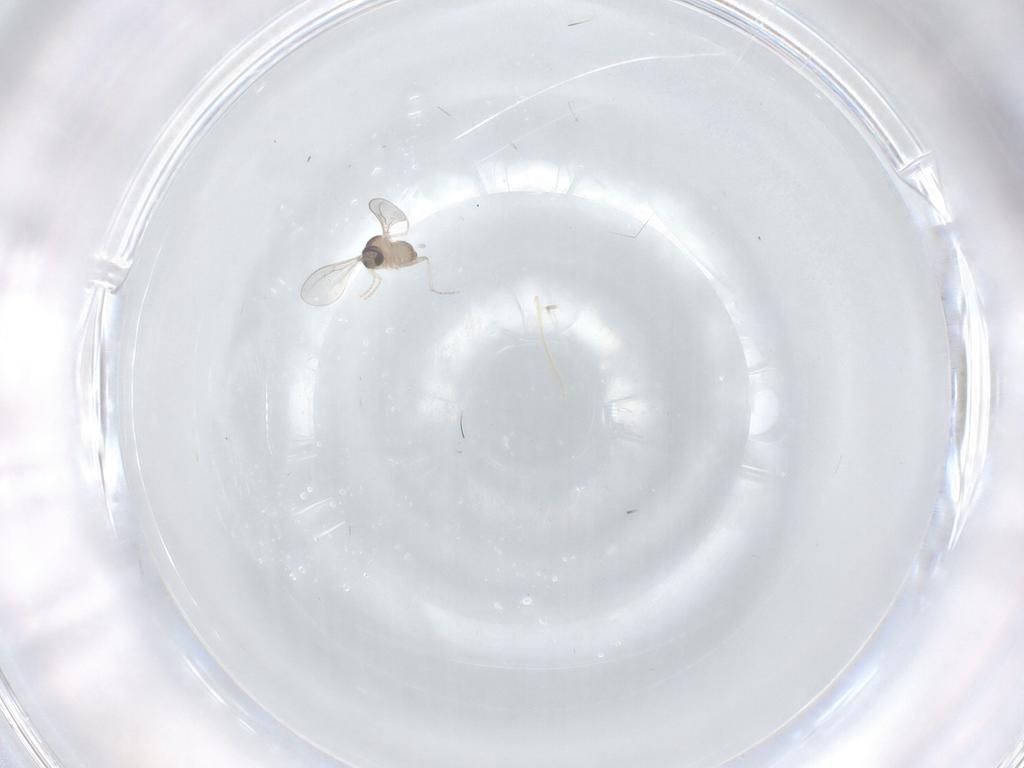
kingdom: Animalia
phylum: Arthropoda
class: Insecta
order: Diptera
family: Cecidomyiidae
